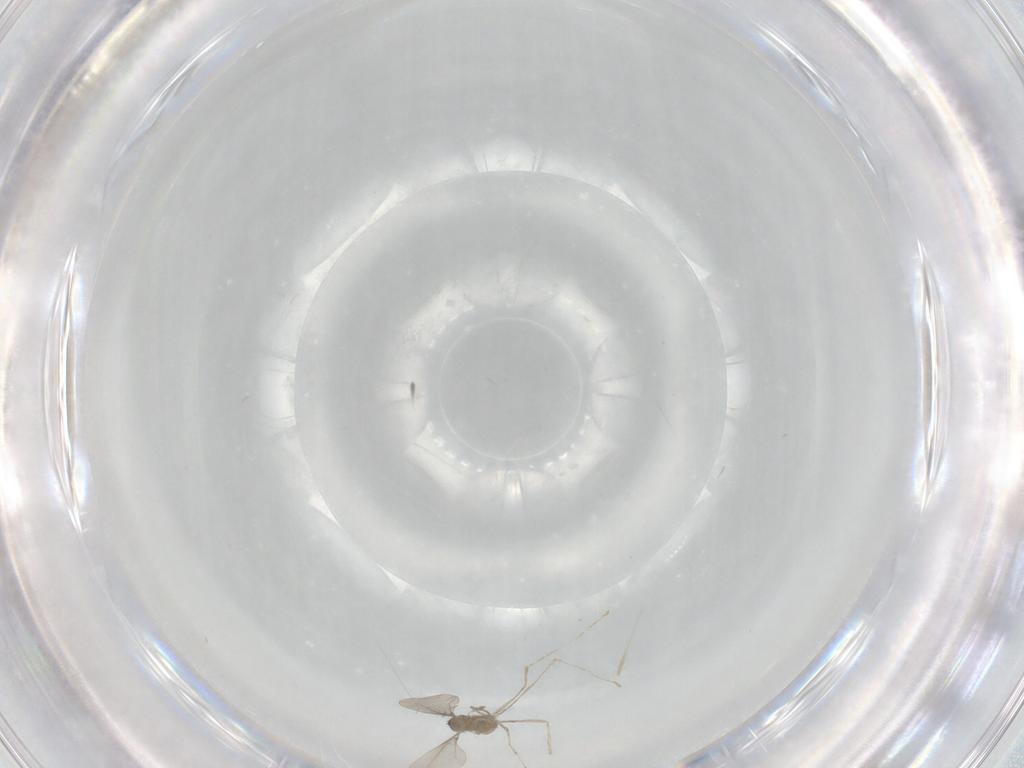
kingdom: Animalia
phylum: Arthropoda
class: Insecta
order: Diptera
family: Cecidomyiidae
